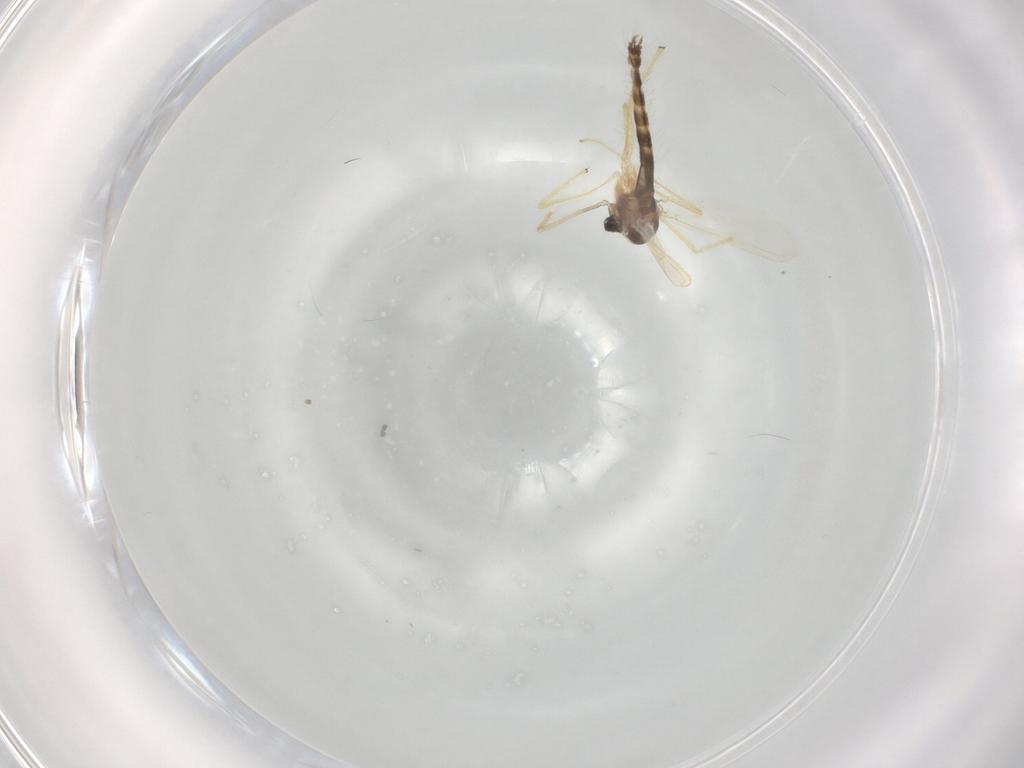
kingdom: Animalia
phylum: Arthropoda
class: Insecta
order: Diptera
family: Chironomidae
